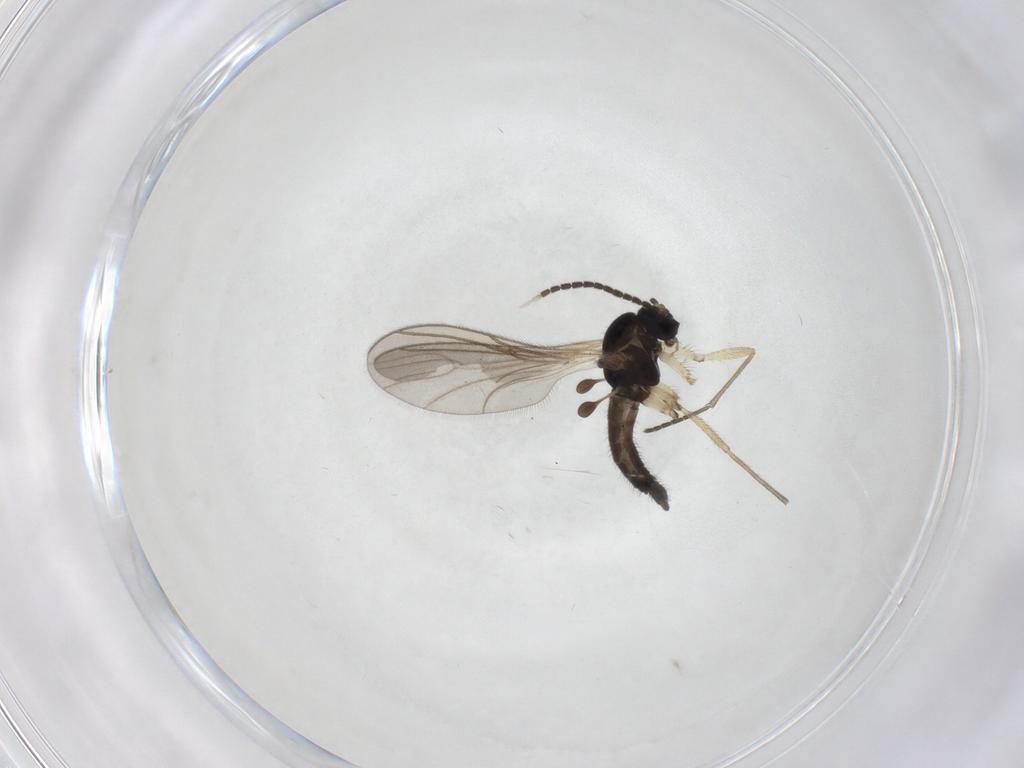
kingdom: Animalia
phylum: Arthropoda
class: Insecta
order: Diptera
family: Sciaridae
